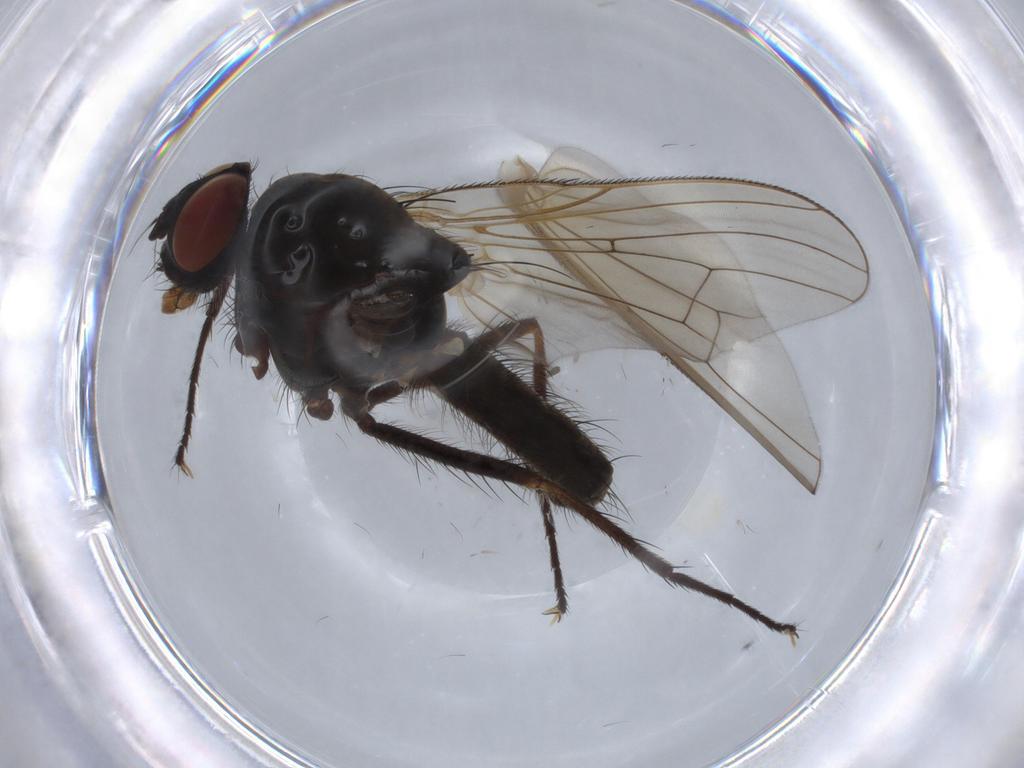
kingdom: Animalia
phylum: Arthropoda
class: Insecta
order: Diptera
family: Anthomyiidae
